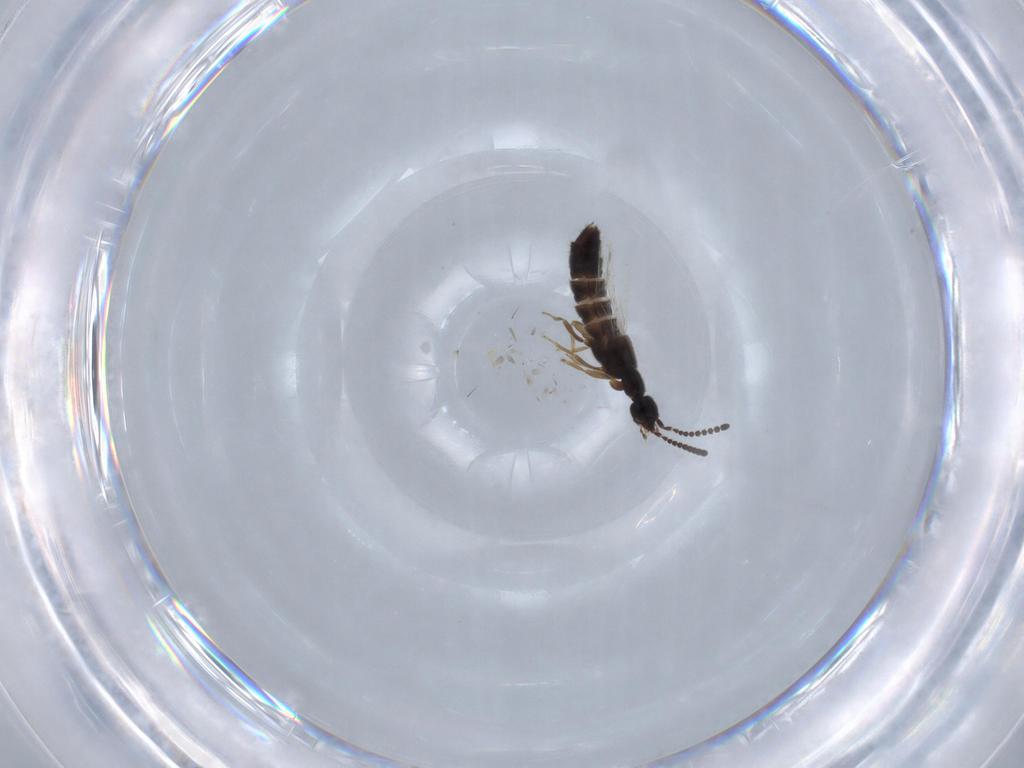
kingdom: Animalia
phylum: Arthropoda
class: Insecta
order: Coleoptera
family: Staphylinidae
